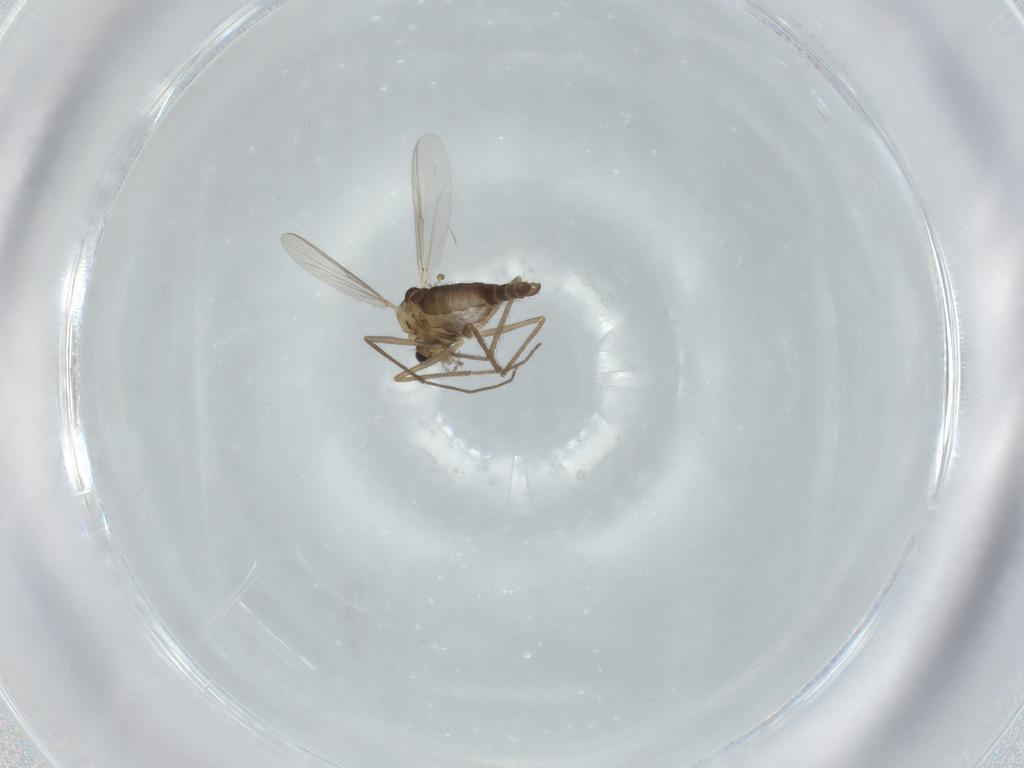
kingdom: Animalia
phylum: Arthropoda
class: Insecta
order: Diptera
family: Chironomidae
